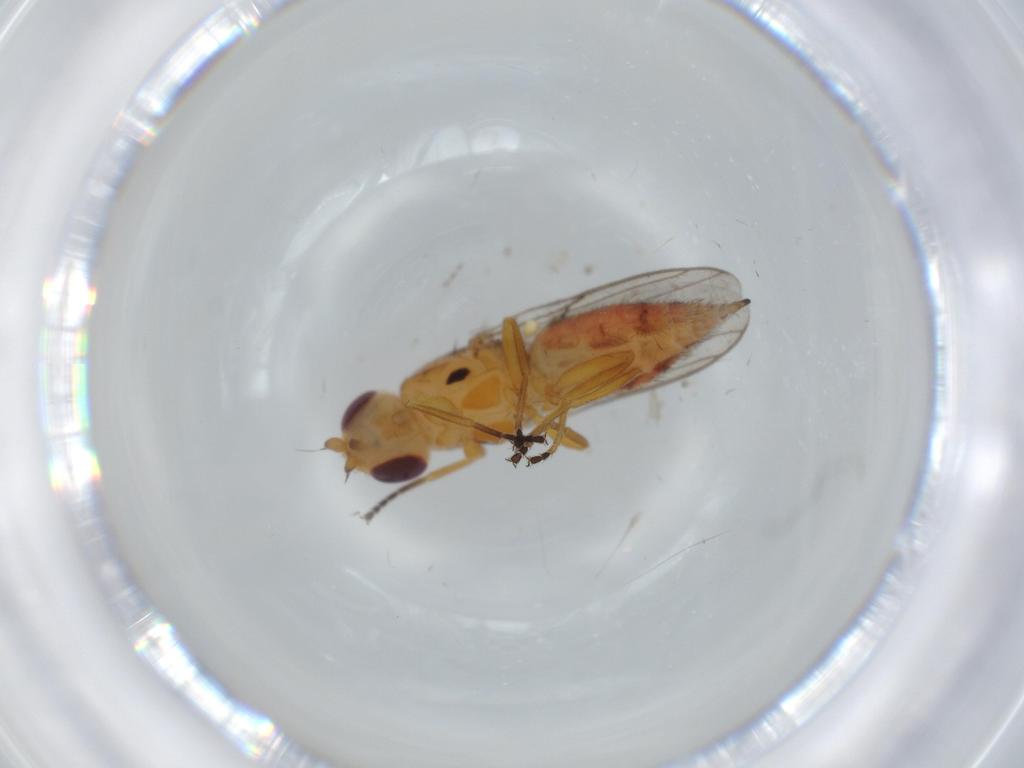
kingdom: Animalia
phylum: Arthropoda
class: Insecta
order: Diptera
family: Chloropidae
